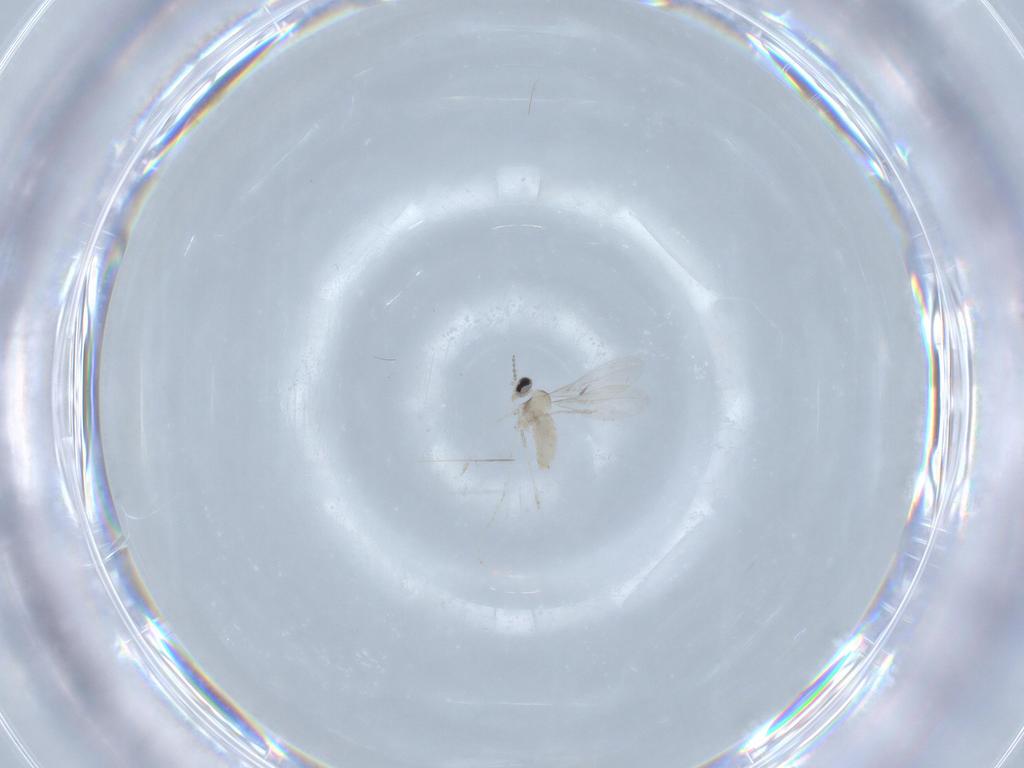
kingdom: Animalia
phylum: Arthropoda
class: Insecta
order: Diptera
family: Cecidomyiidae
